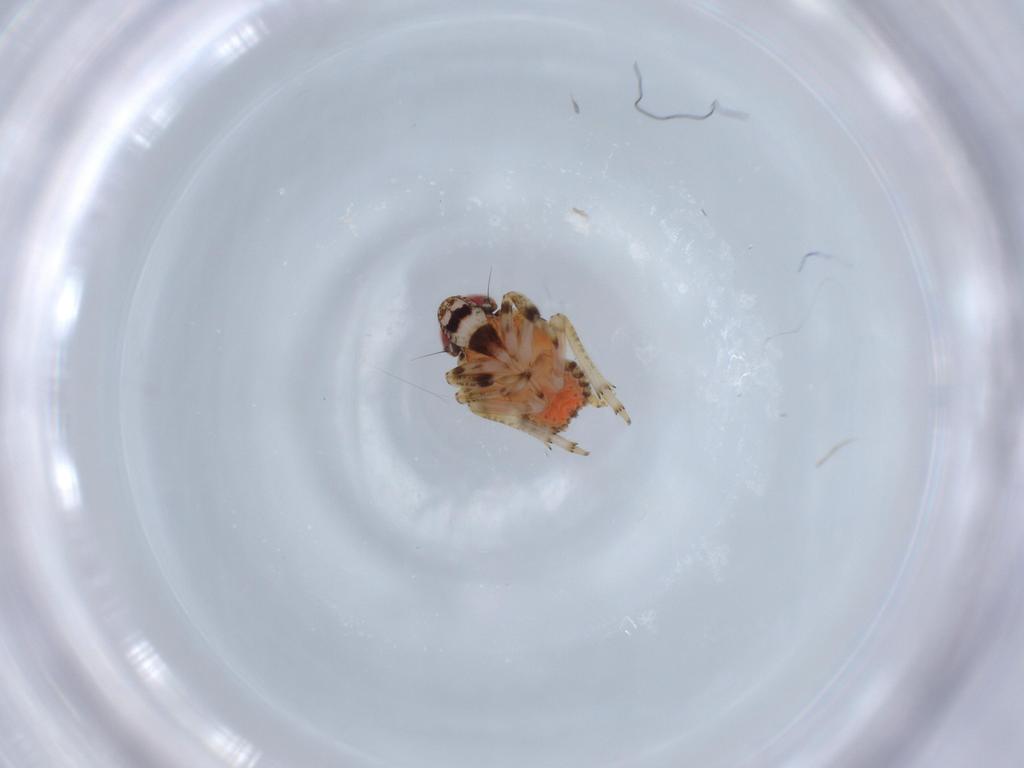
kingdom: Animalia
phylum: Arthropoda
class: Insecta
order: Hemiptera
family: Issidae
